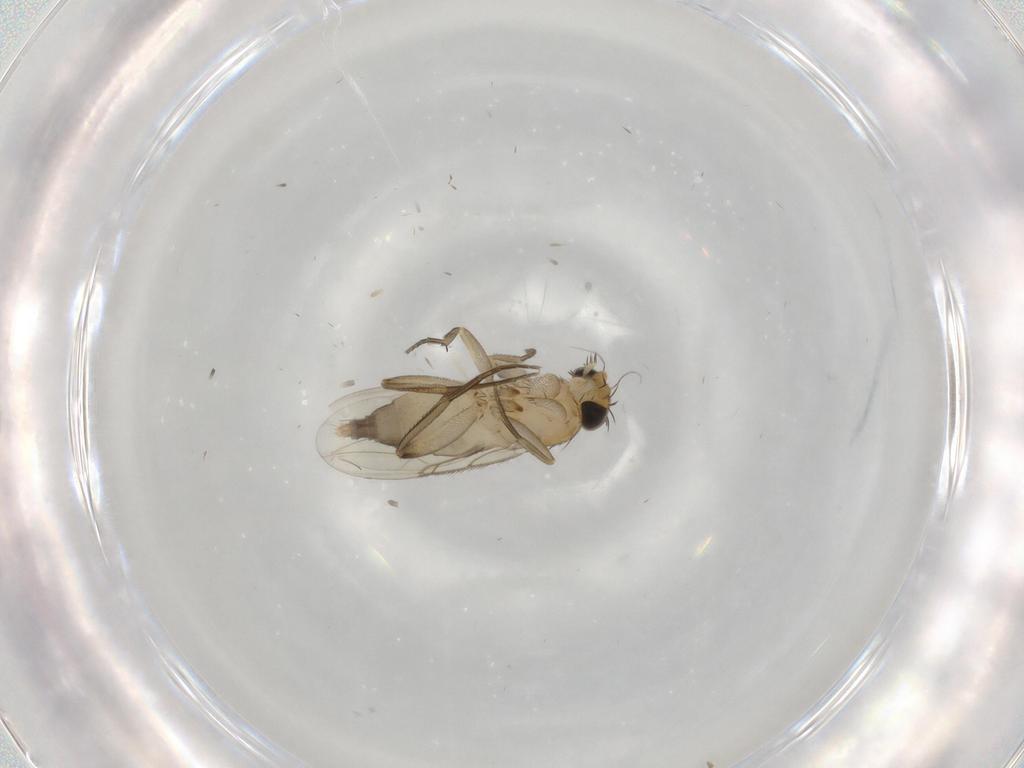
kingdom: Animalia
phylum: Arthropoda
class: Insecta
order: Diptera
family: Phoridae
